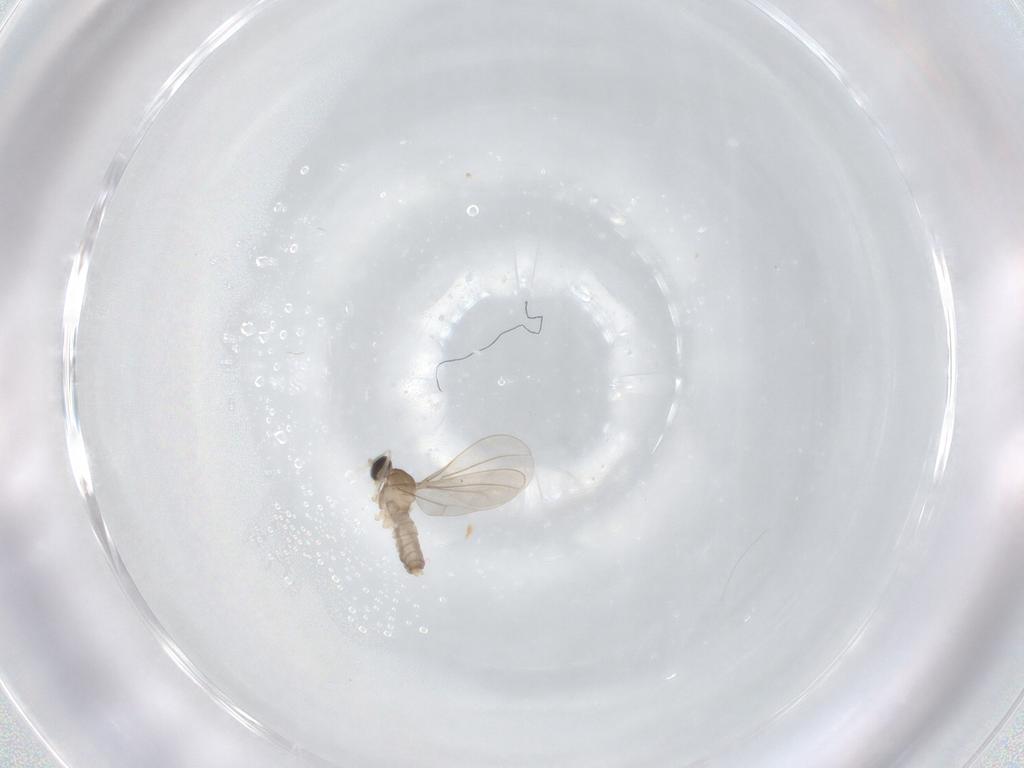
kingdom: Animalia
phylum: Arthropoda
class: Insecta
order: Diptera
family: Cecidomyiidae
